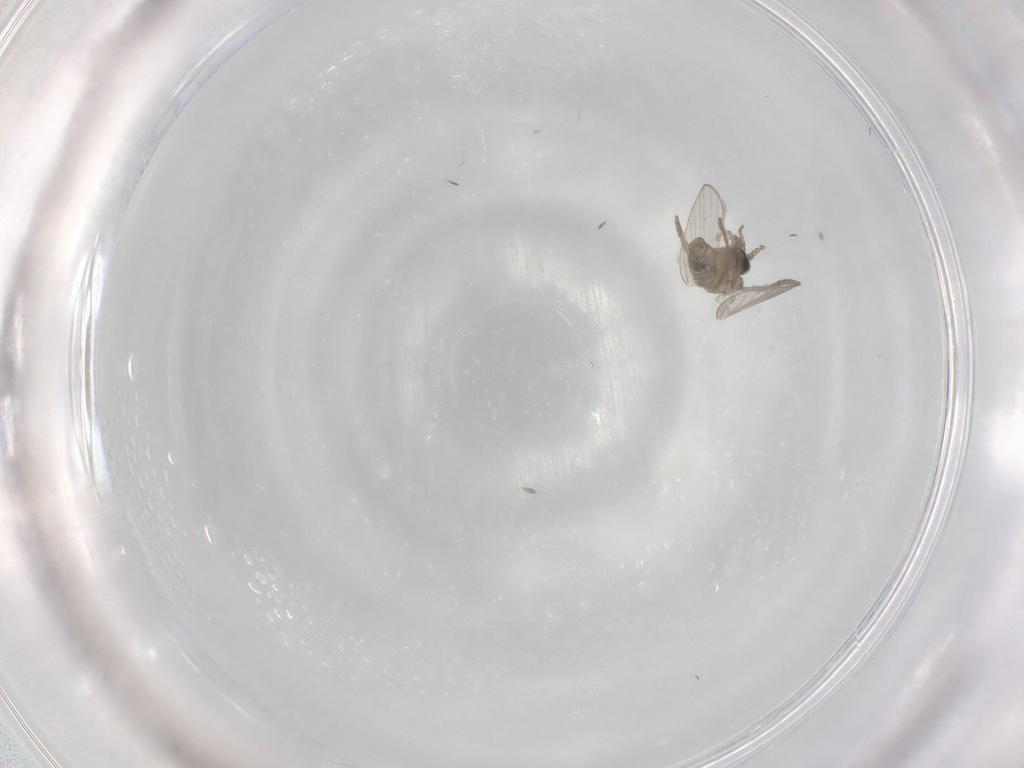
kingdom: Animalia
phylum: Arthropoda
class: Insecta
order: Diptera
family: Psychodidae
